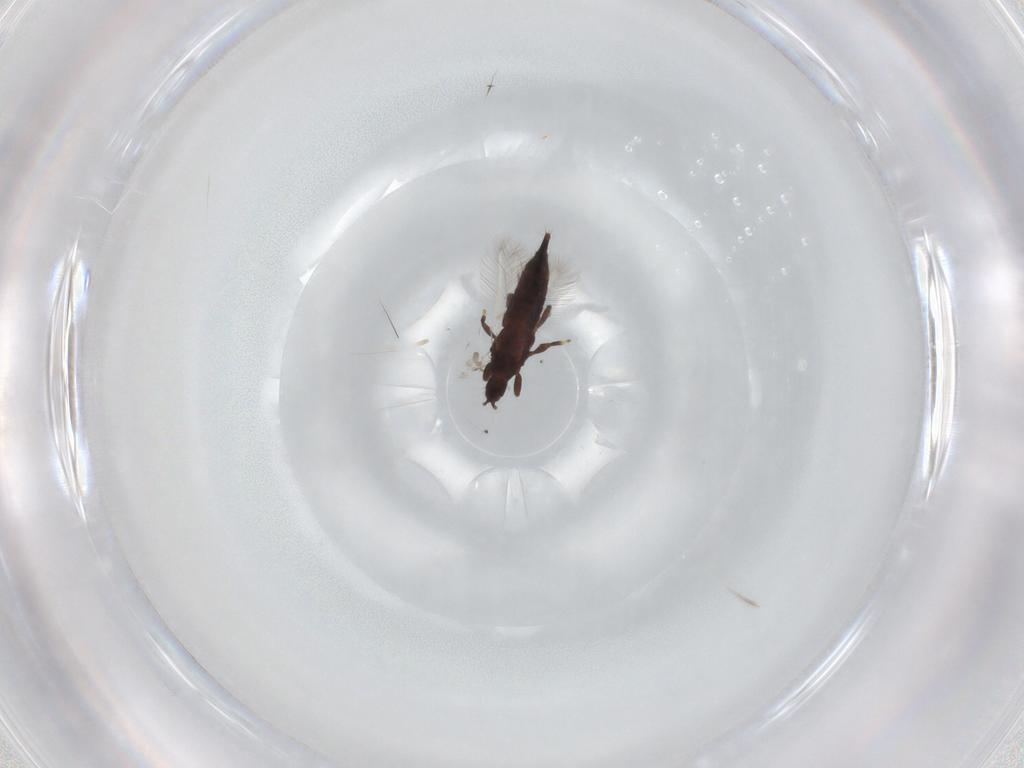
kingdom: Animalia
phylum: Arthropoda
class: Insecta
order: Thysanoptera
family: Phlaeothripidae
